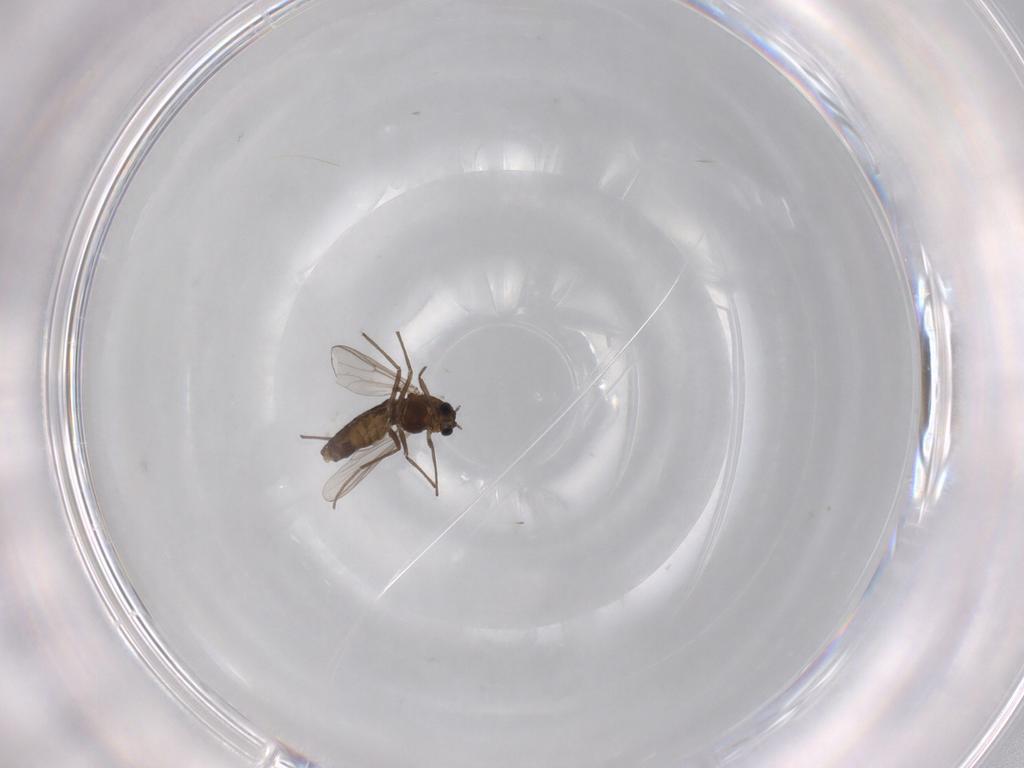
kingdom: Animalia
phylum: Arthropoda
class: Insecta
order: Diptera
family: Chironomidae
